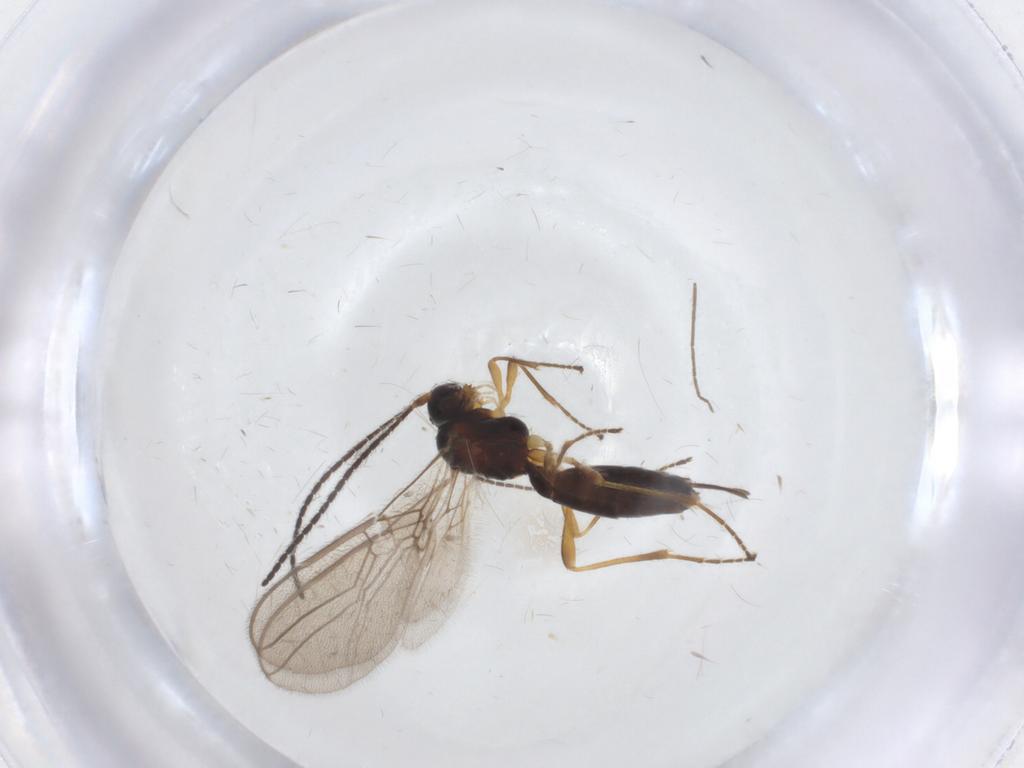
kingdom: Animalia
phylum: Arthropoda
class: Insecta
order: Hymenoptera
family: Braconidae
